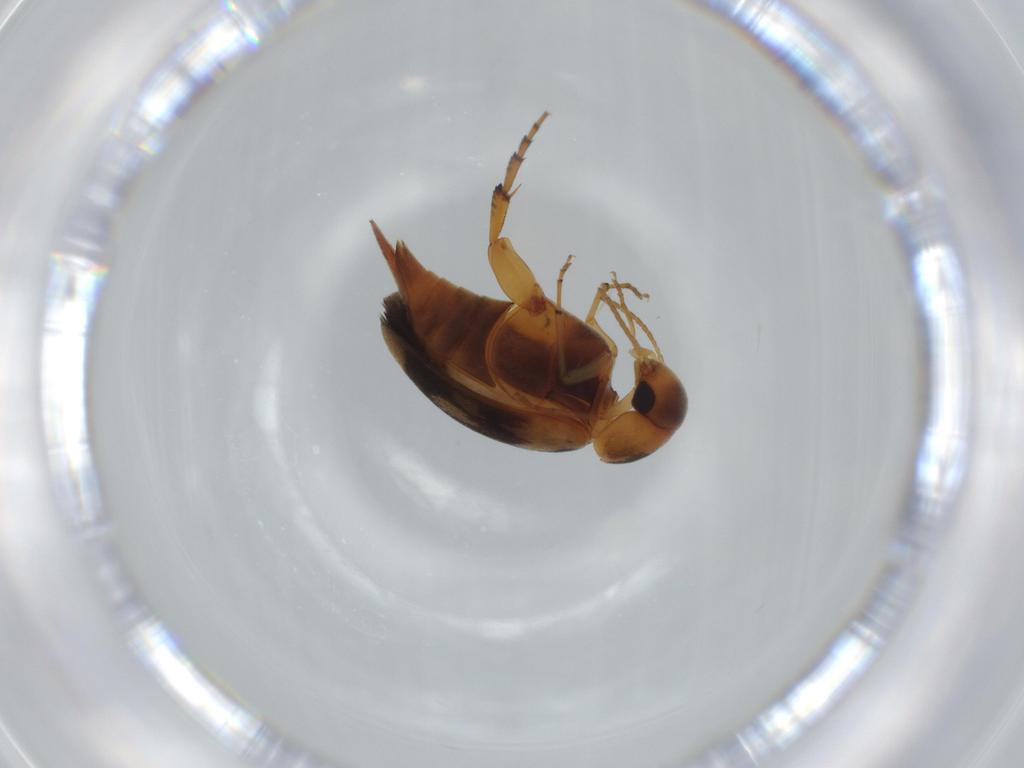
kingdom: Animalia
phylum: Arthropoda
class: Insecta
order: Coleoptera
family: Mordellidae
